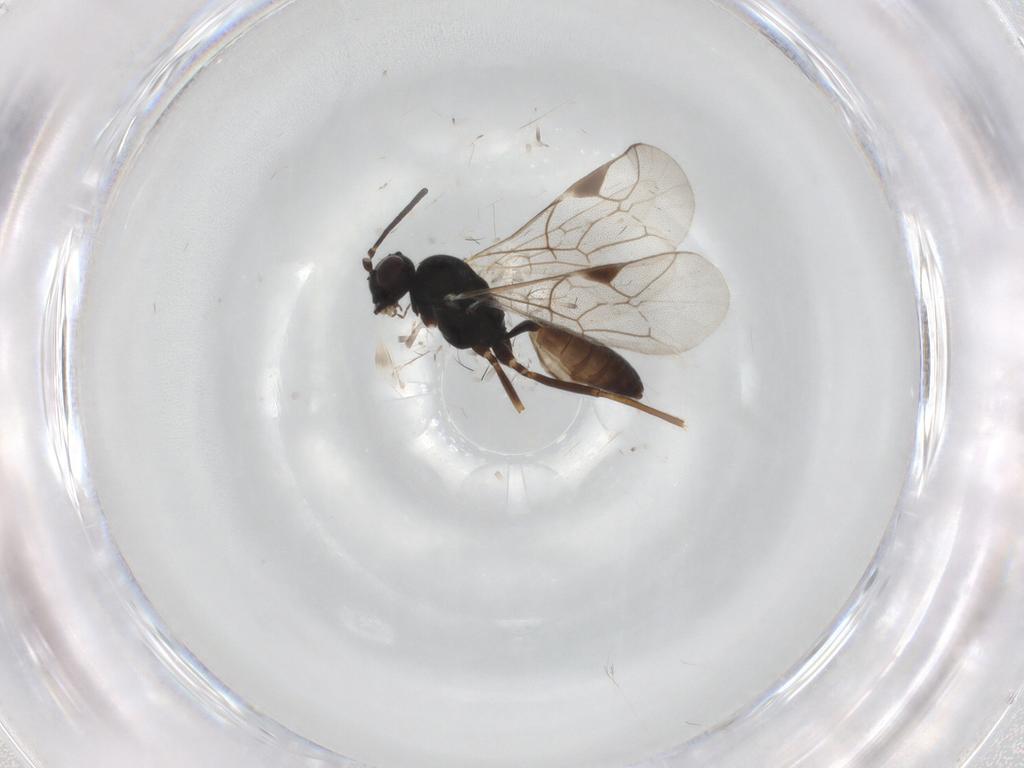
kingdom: Animalia
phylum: Arthropoda
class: Insecta
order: Hymenoptera
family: Ichneumonidae
